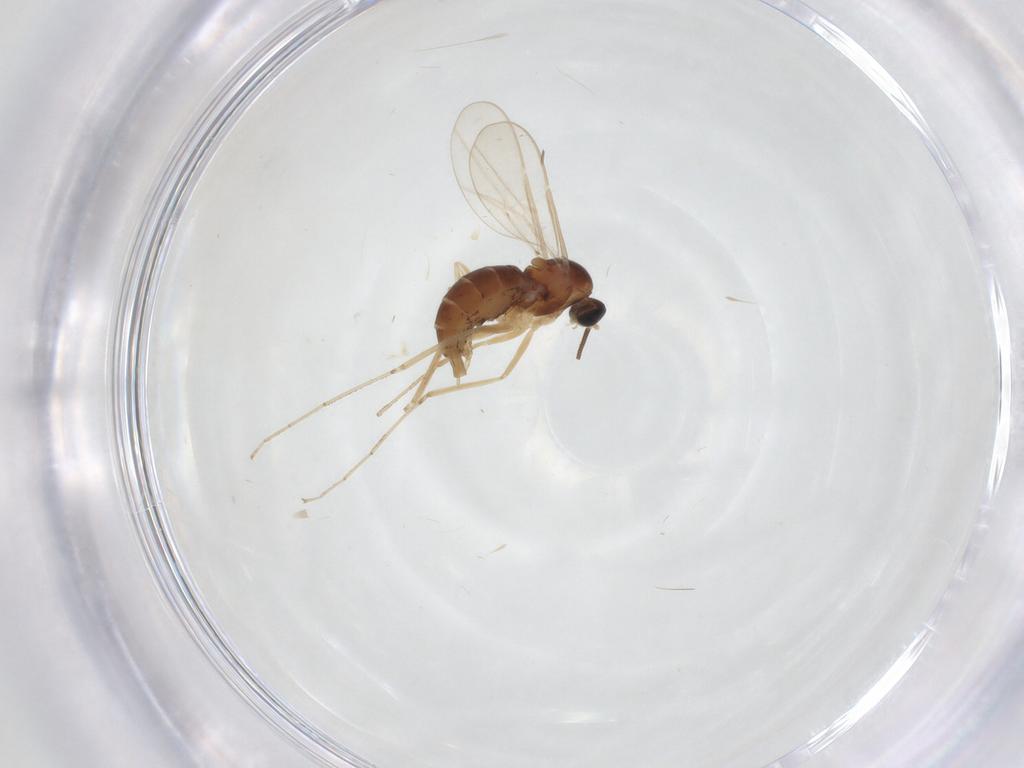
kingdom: Animalia
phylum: Arthropoda
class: Insecta
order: Diptera
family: Cecidomyiidae
